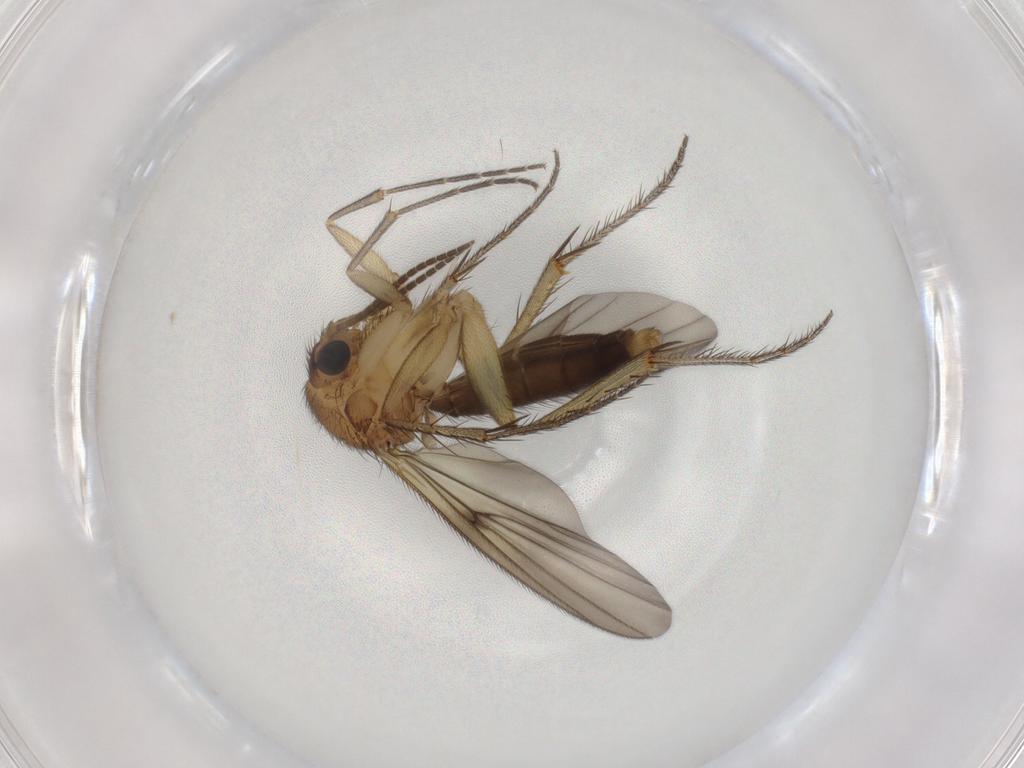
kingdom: Animalia
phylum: Arthropoda
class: Insecta
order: Diptera
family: Mycetophilidae
